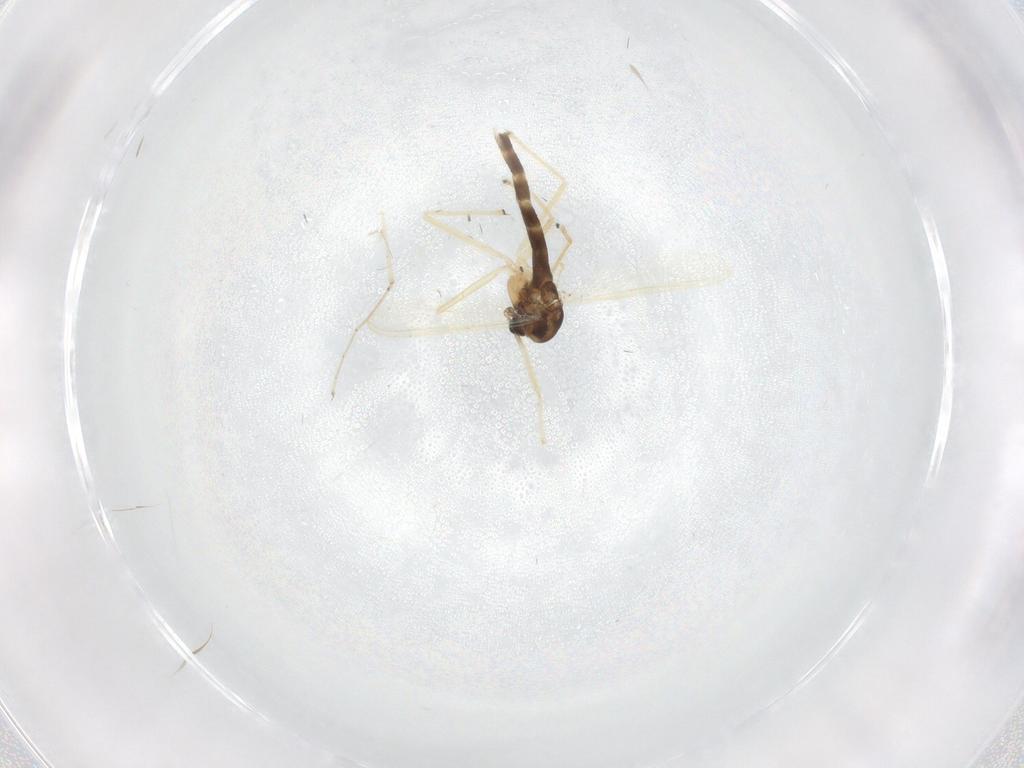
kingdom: Animalia
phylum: Arthropoda
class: Insecta
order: Diptera
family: Chironomidae
